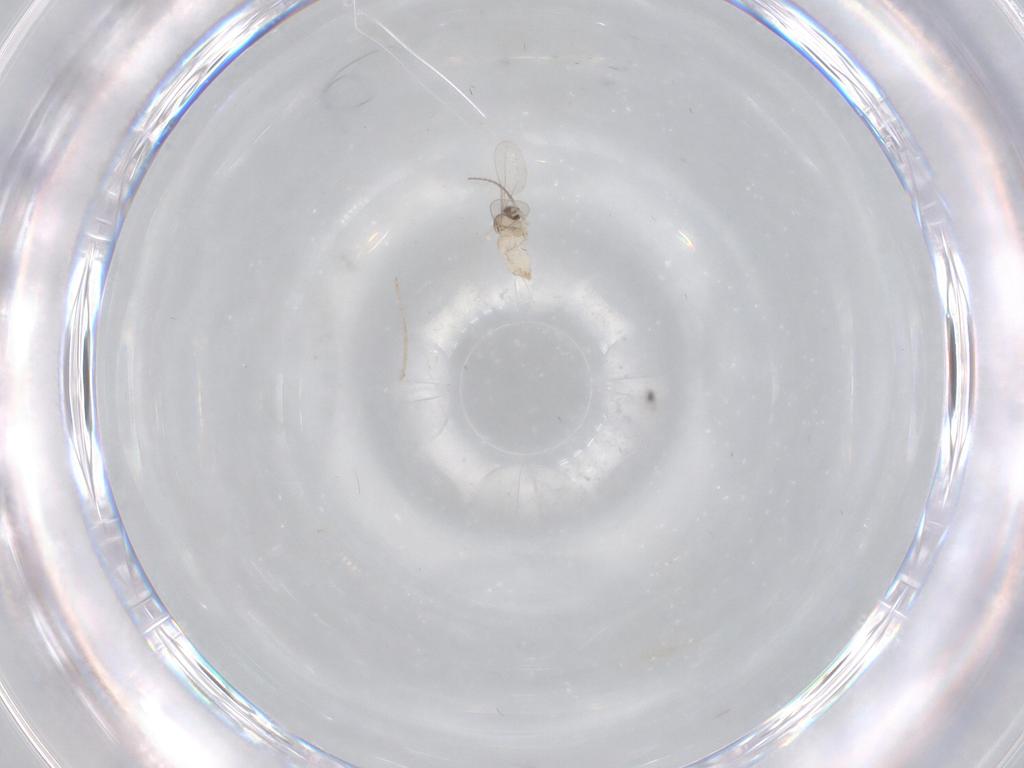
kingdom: Animalia
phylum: Arthropoda
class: Insecta
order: Diptera
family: Cecidomyiidae
